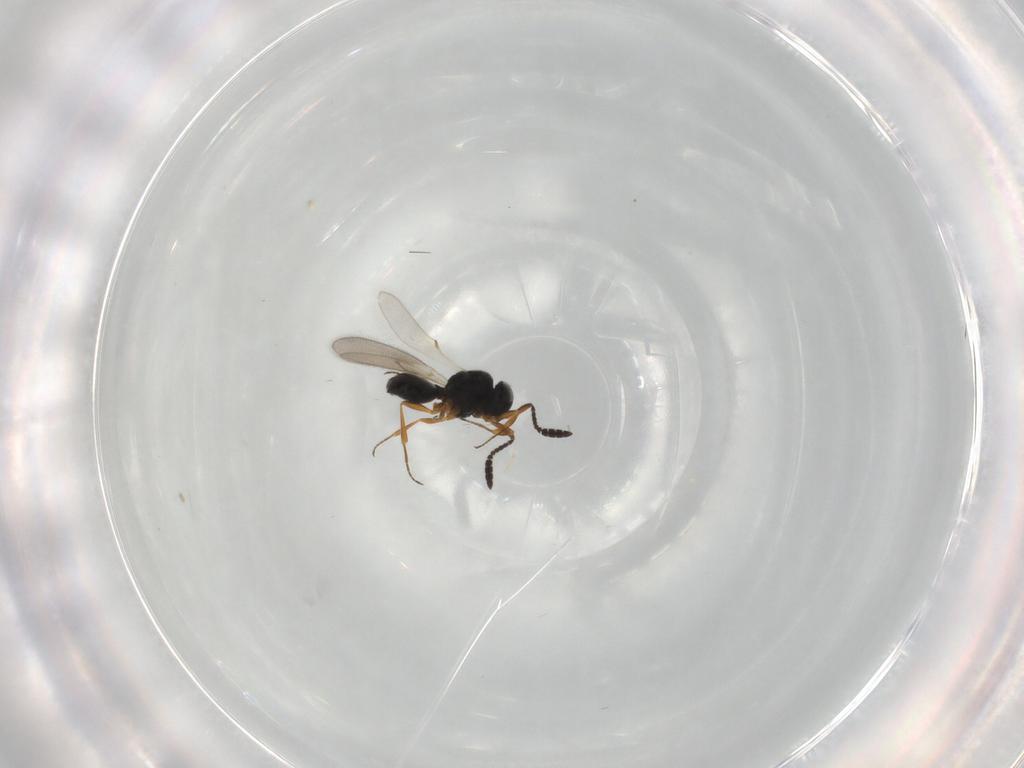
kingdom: Animalia
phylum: Arthropoda
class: Insecta
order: Hymenoptera
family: Scelionidae
